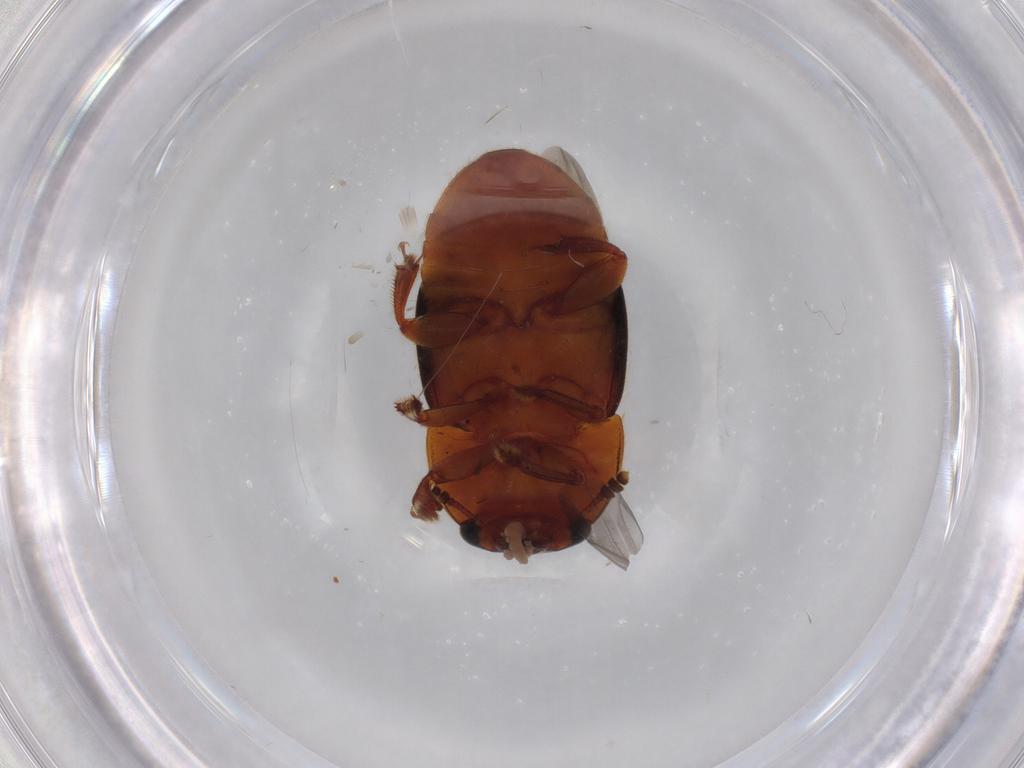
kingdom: Animalia
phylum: Arthropoda
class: Insecta
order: Coleoptera
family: Nitidulidae
